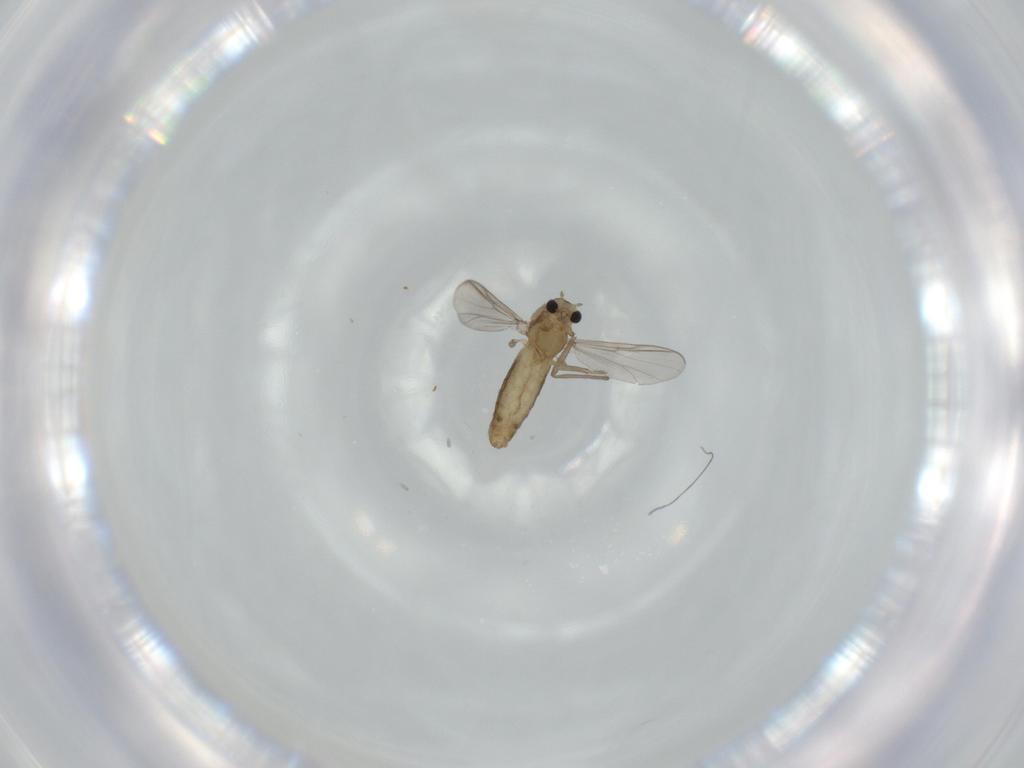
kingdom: Animalia
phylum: Arthropoda
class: Insecta
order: Diptera
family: Chironomidae
